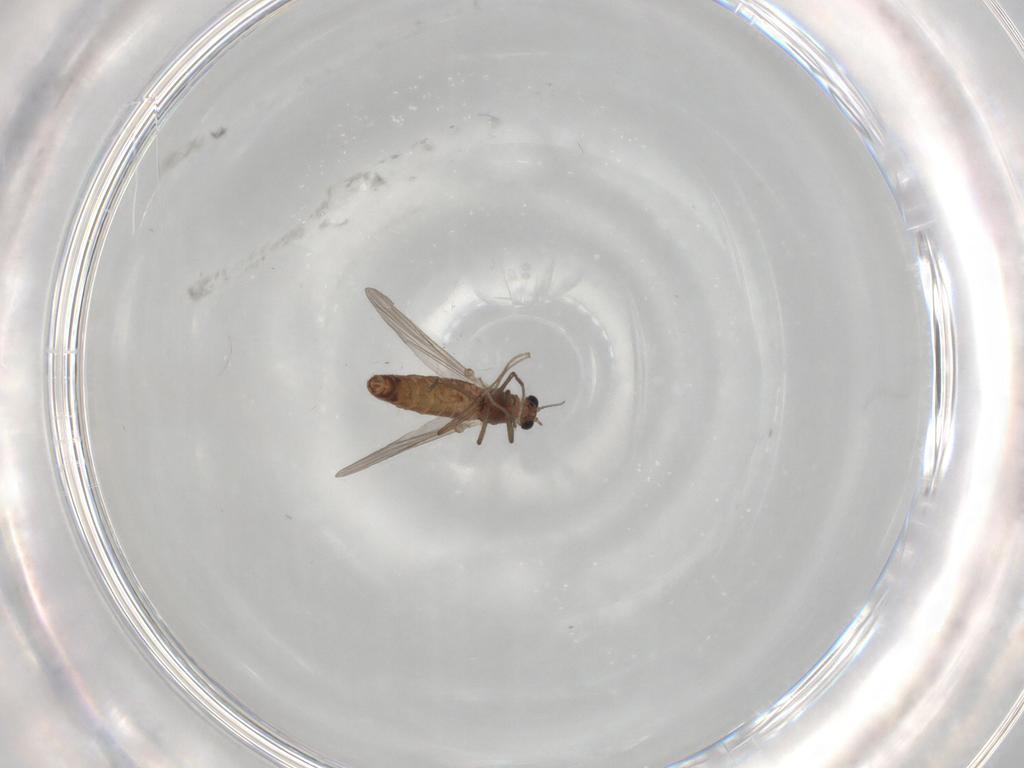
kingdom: Animalia
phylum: Arthropoda
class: Insecta
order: Diptera
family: Chironomidae
